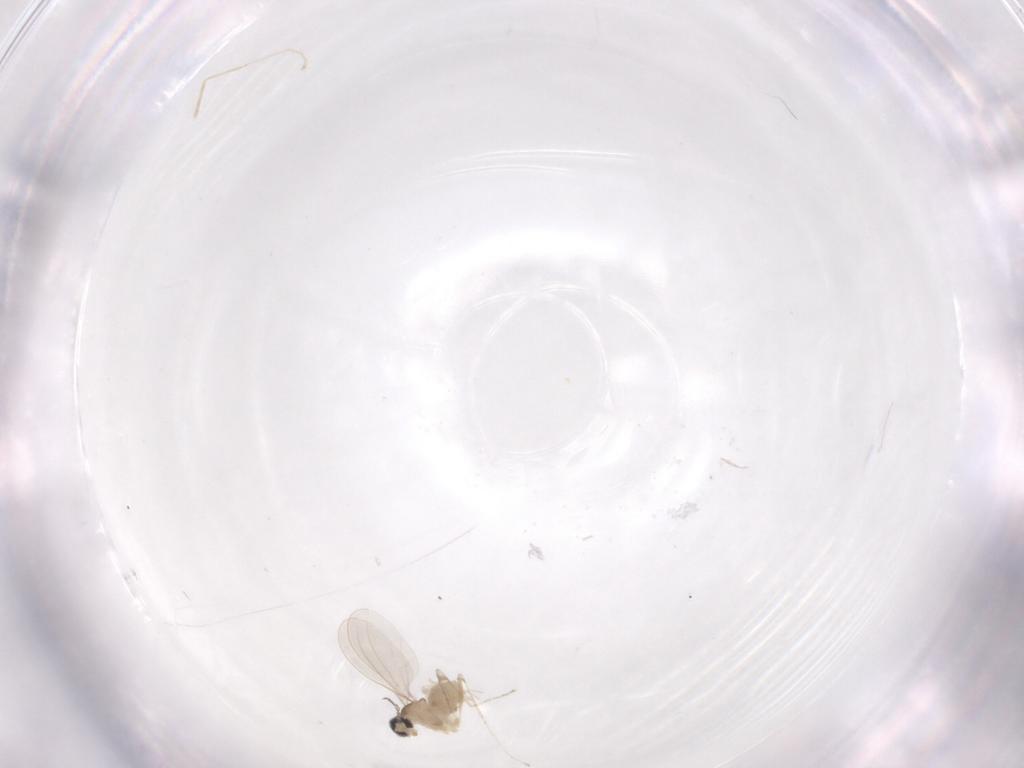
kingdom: Animalia
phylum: Arthropoda
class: Insecta
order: Diptera
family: Cecidomyiidae
